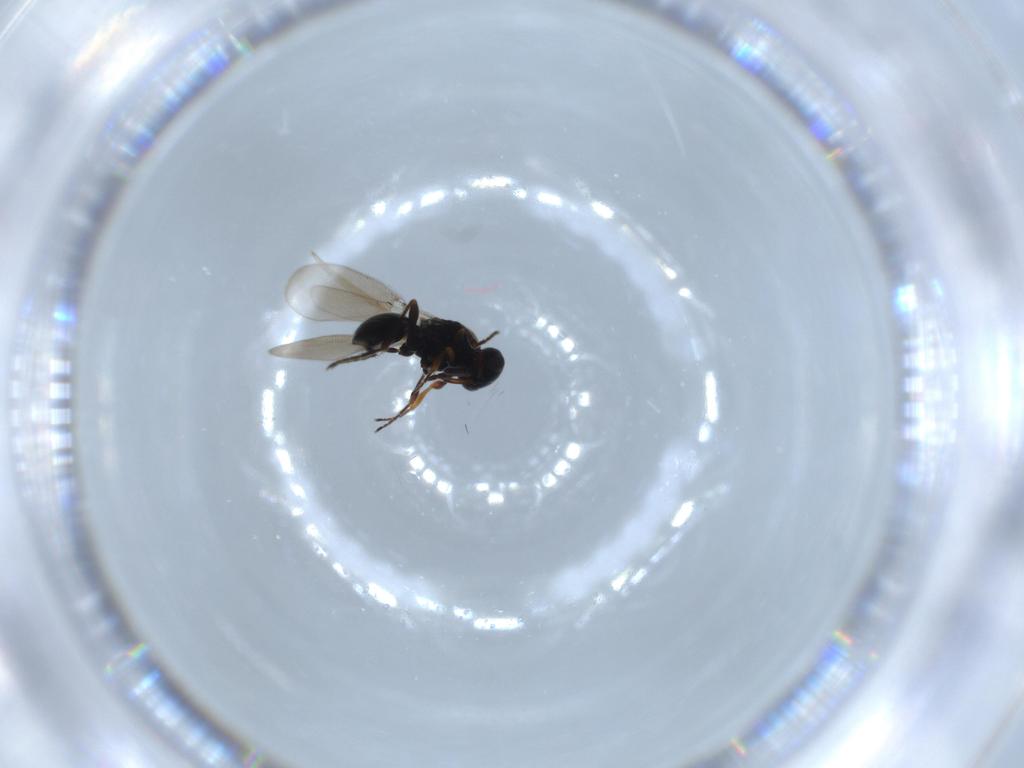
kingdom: Animalia
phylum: Arthropoda
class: Insecta
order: Hymenoptera
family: Platygastridae
